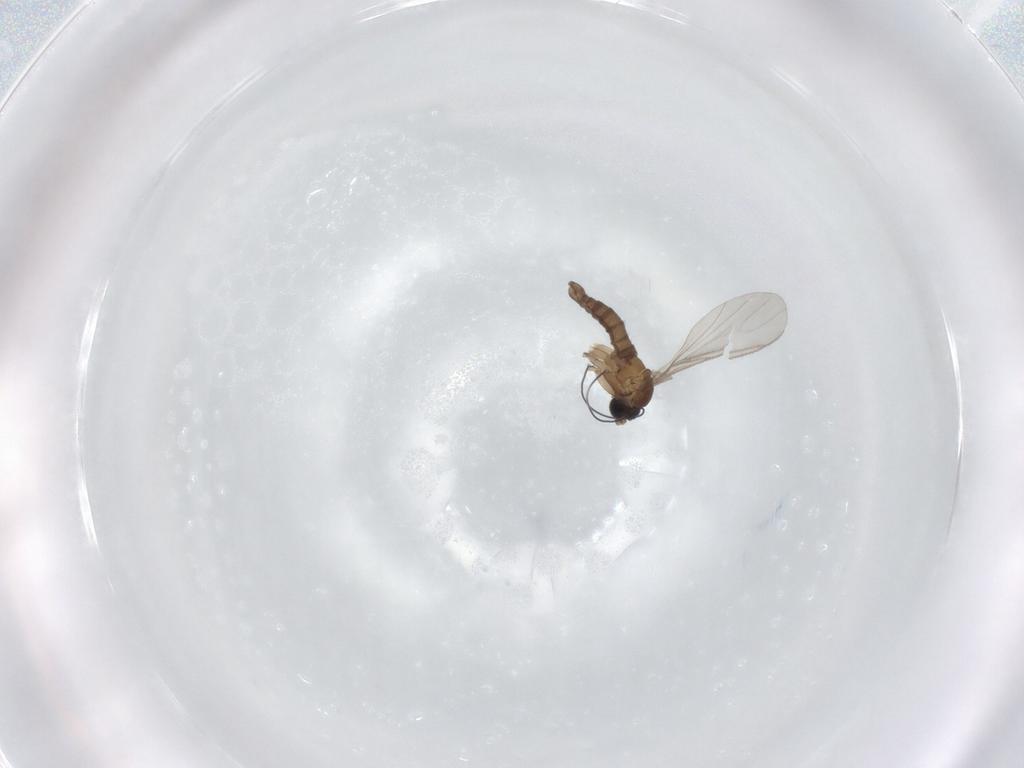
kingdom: Animalia
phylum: Arthropoda
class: Insecta
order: Diptera
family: Sciaridae
